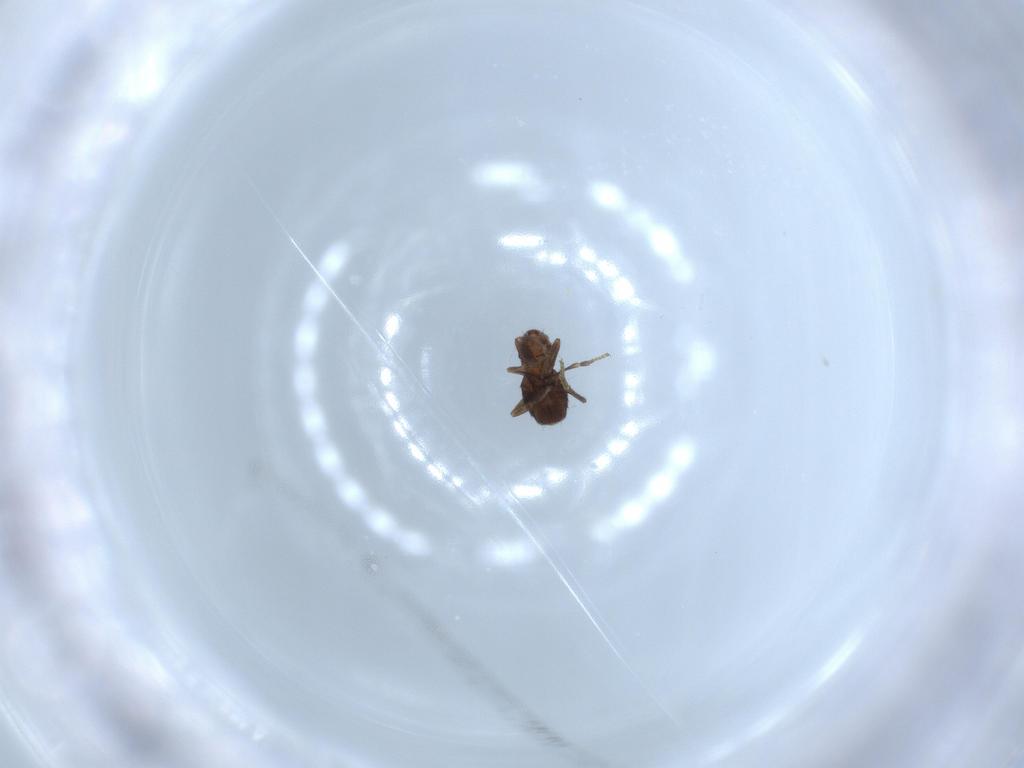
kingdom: Animalia
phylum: Arthropoda
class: Insecta
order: Diptera
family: Sciaridae
